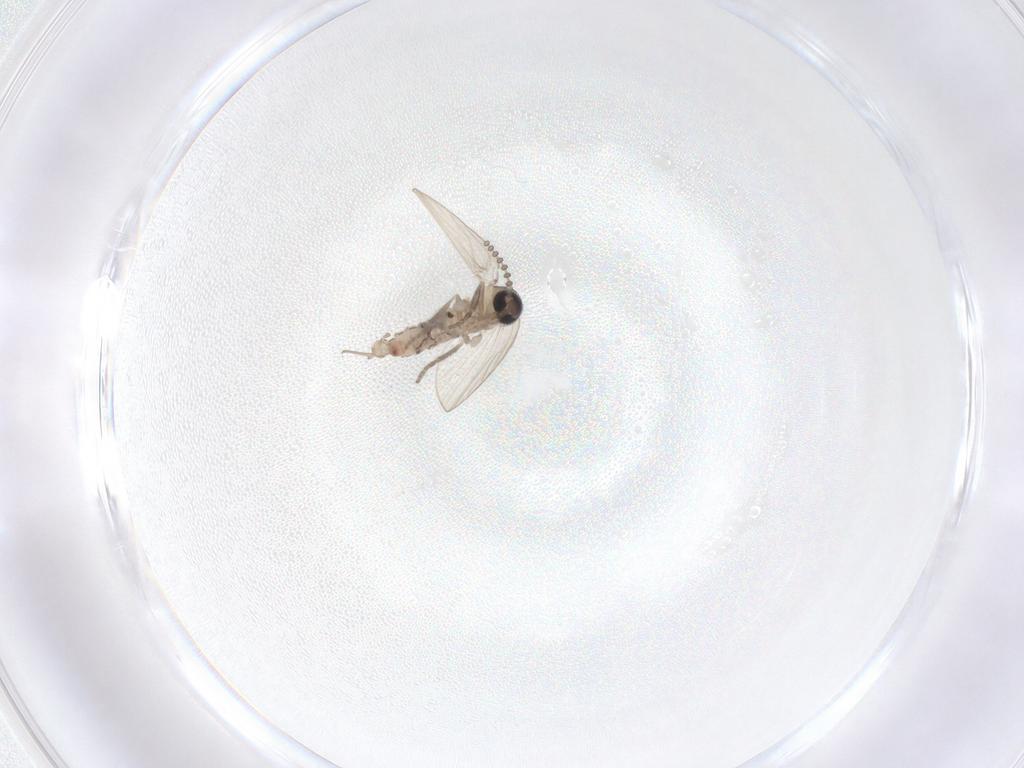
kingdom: Animalia
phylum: Arthropoda
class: Insecta
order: Diptera
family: Psychodidae
